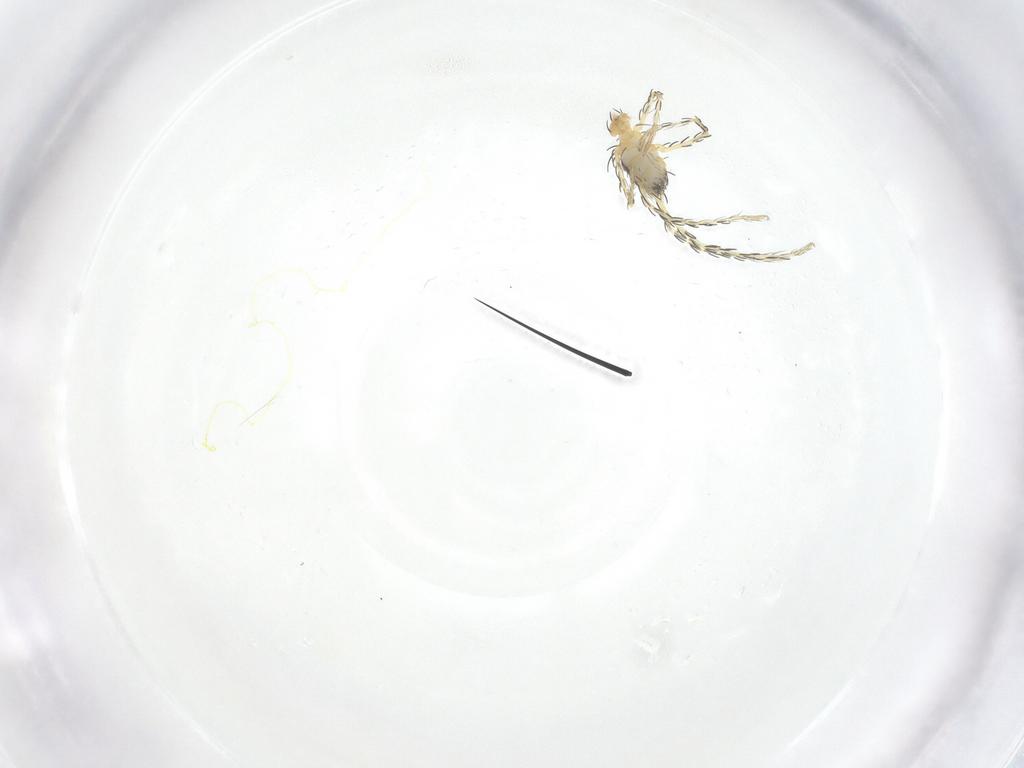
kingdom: Animalia
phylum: Arthropoda
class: Arachnida
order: Trombidiformes
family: Erythraeidae
